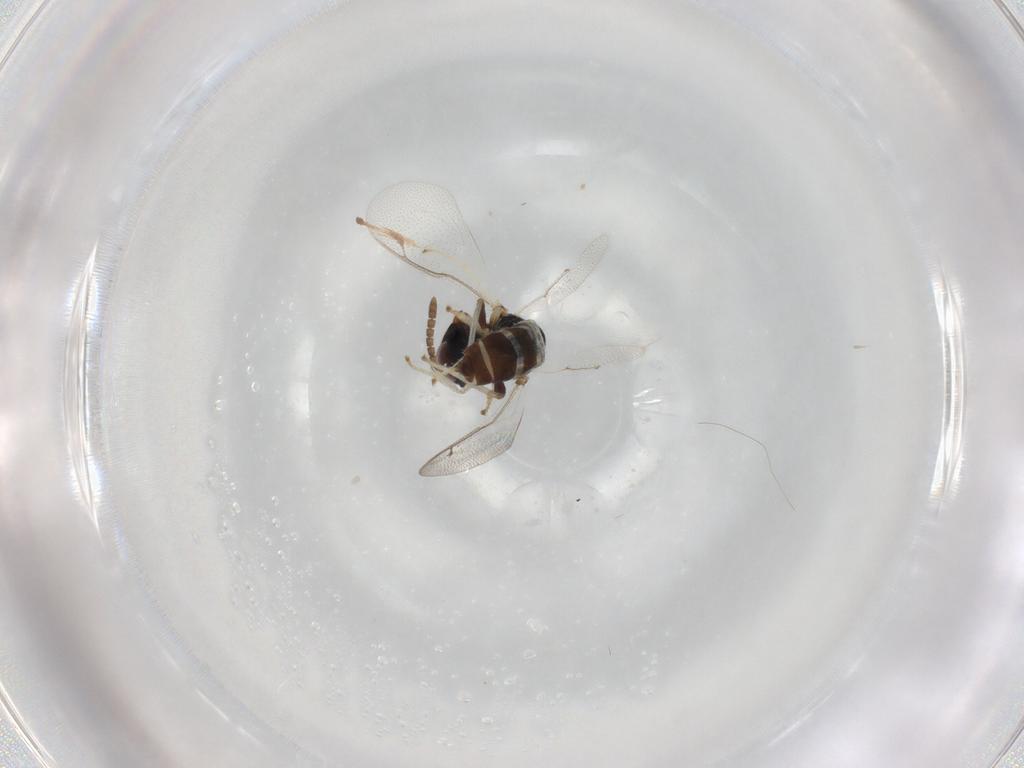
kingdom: Animalia
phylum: Arthropoda
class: Insecta
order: Hymenoptera
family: Pteromalidae
